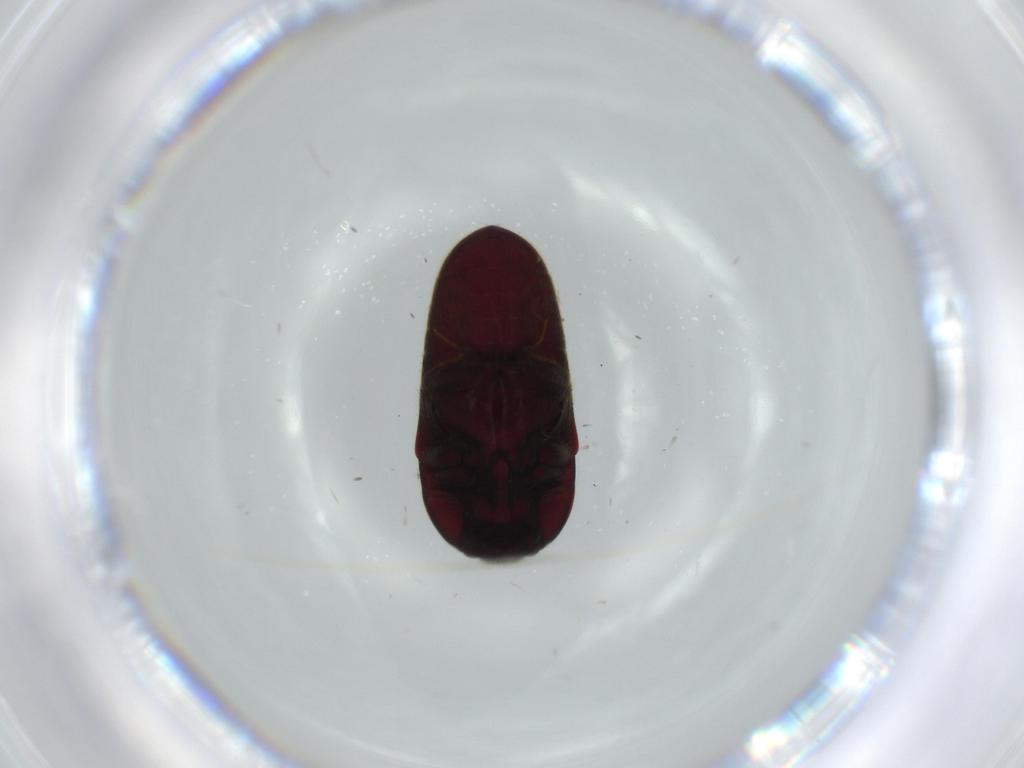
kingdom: Animalia
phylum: Arthropoda
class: Insecta
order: Coleoptera
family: Throscidae
